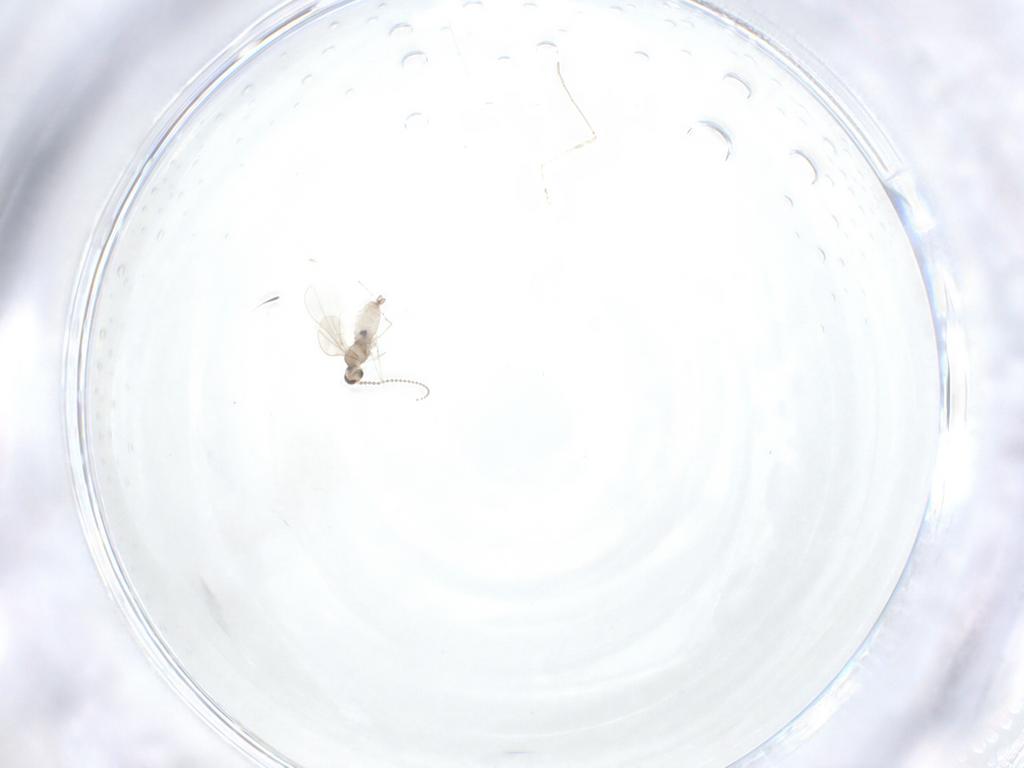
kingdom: Animalia
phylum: Arthropoda
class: Insecta
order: Diptera
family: Cecidomyiidae
